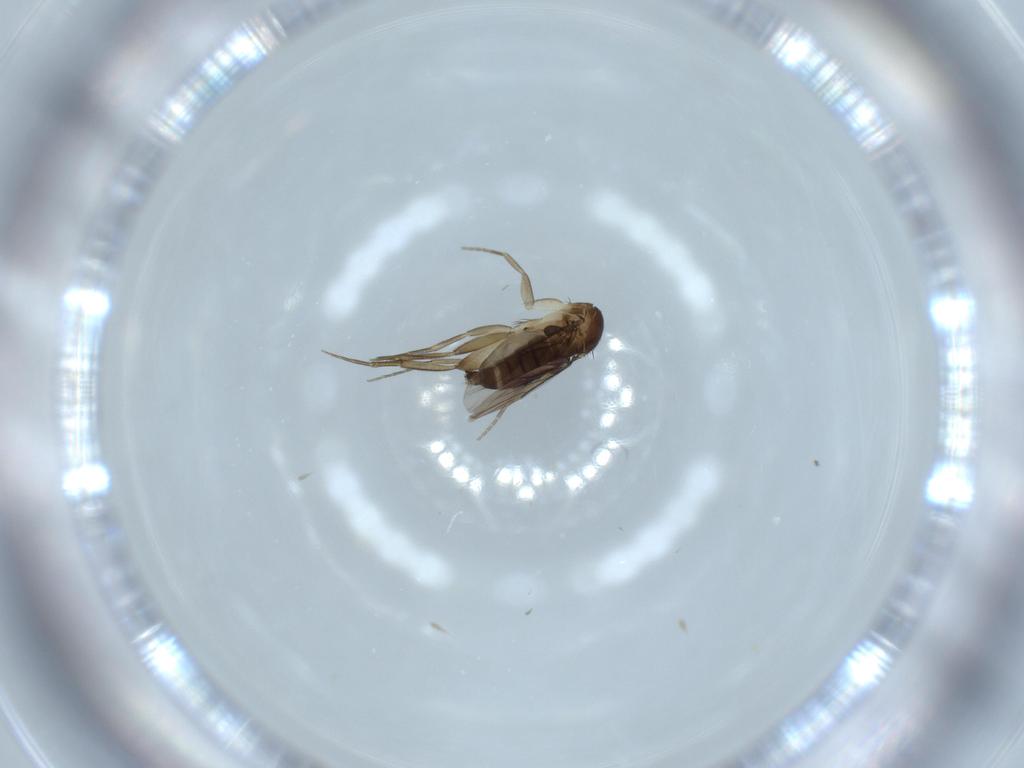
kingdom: Animalia
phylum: Arthropoda
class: Insecta
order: Diptera
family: Phoridae
